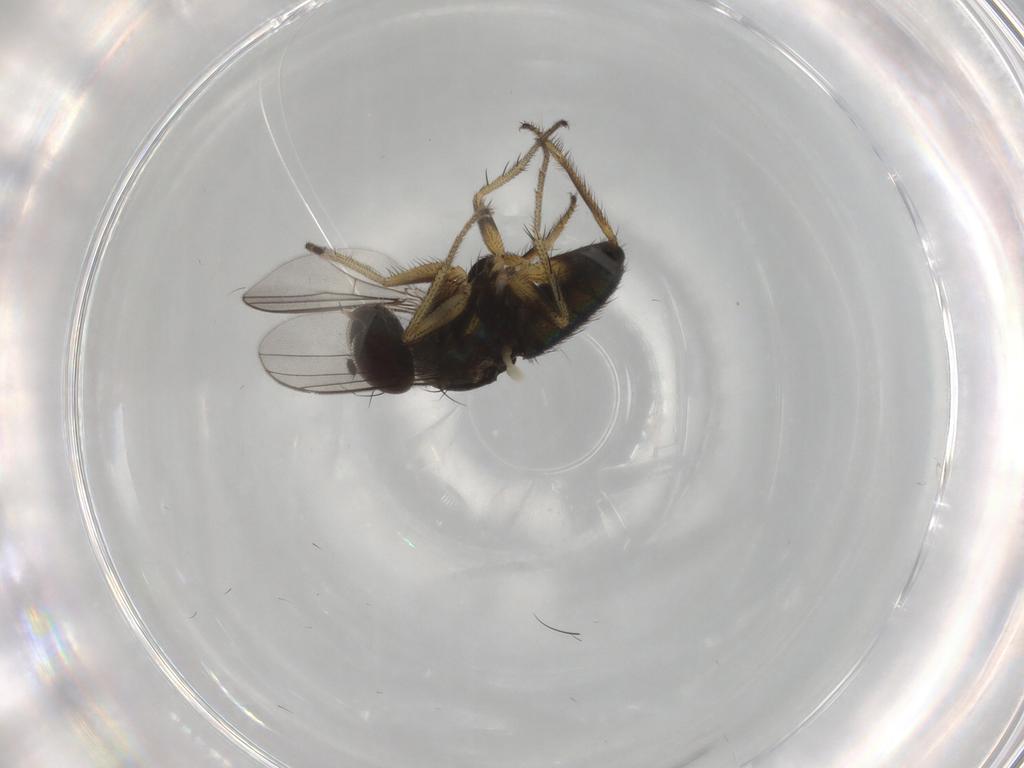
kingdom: Animalia
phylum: Arthropoda
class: Insecta
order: Diptera
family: Dolichopodidae
